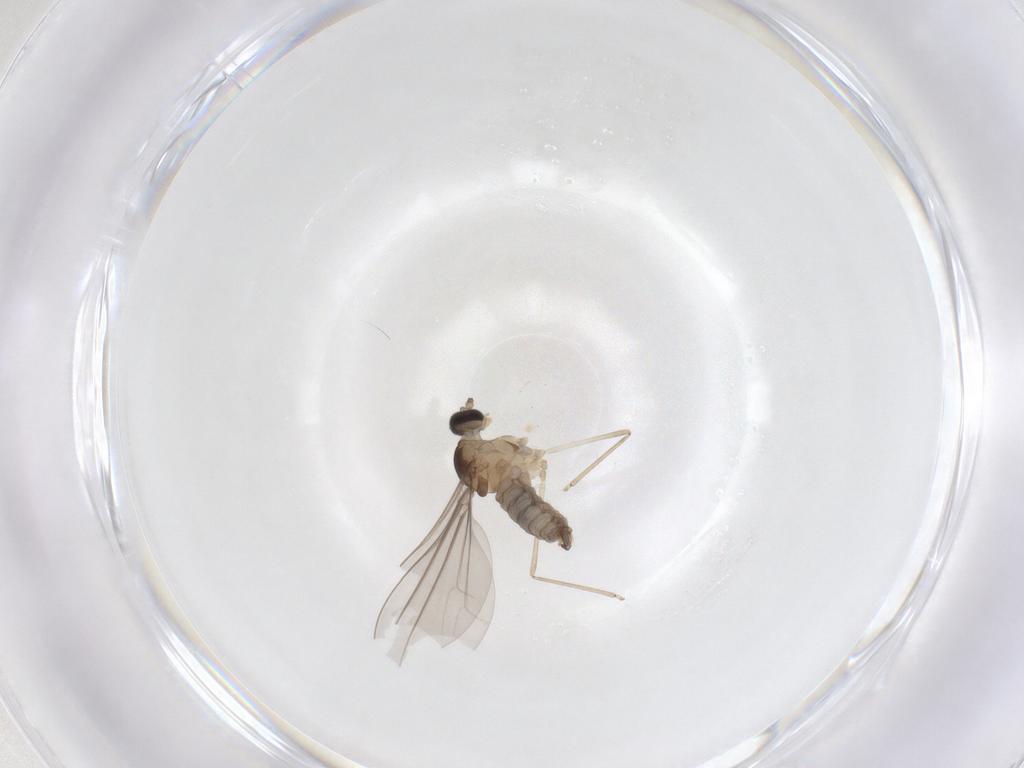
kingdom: Animalia
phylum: Arthropoda
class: Insecta
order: Diptera
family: Cecidomyiidae
